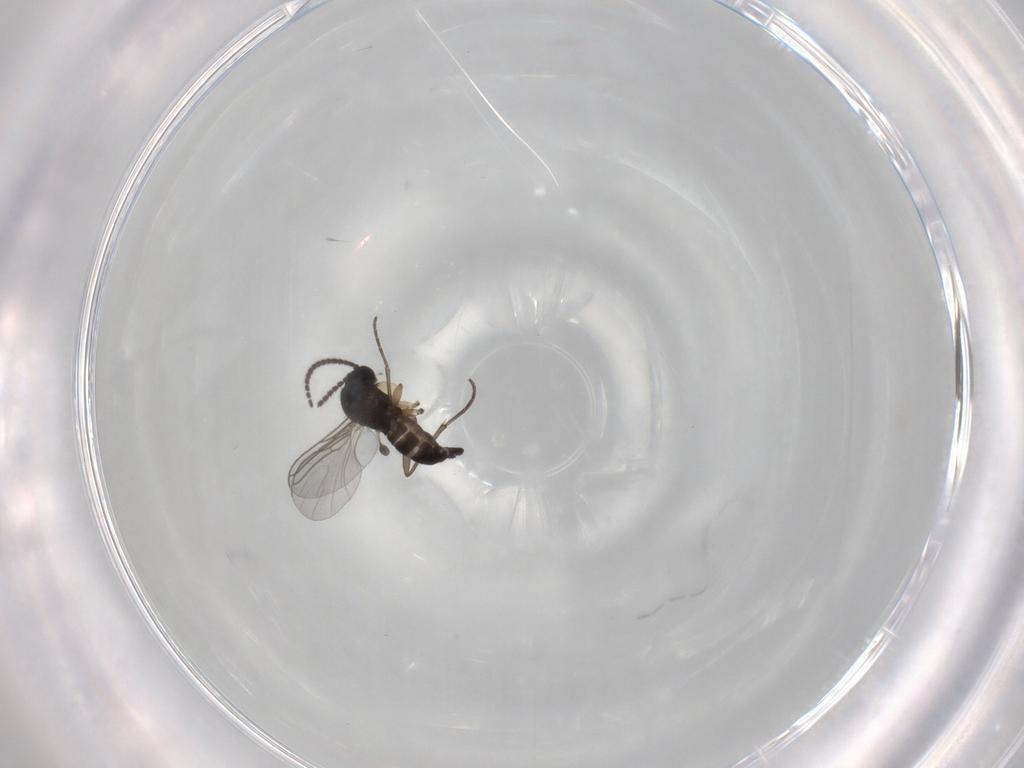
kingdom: Animalia
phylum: Arthropoda
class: Insecta
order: Diptera
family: Sciaridae
